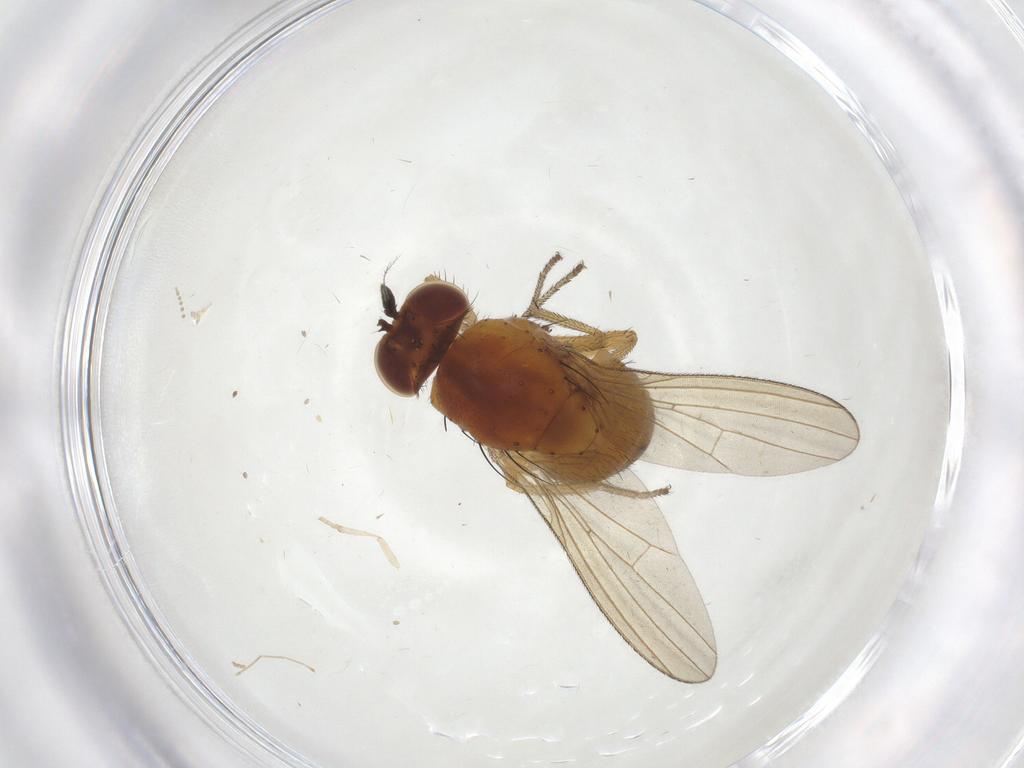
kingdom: Animalia
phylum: Arthropoda
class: Insecta
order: Diptera
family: Psychodidae
